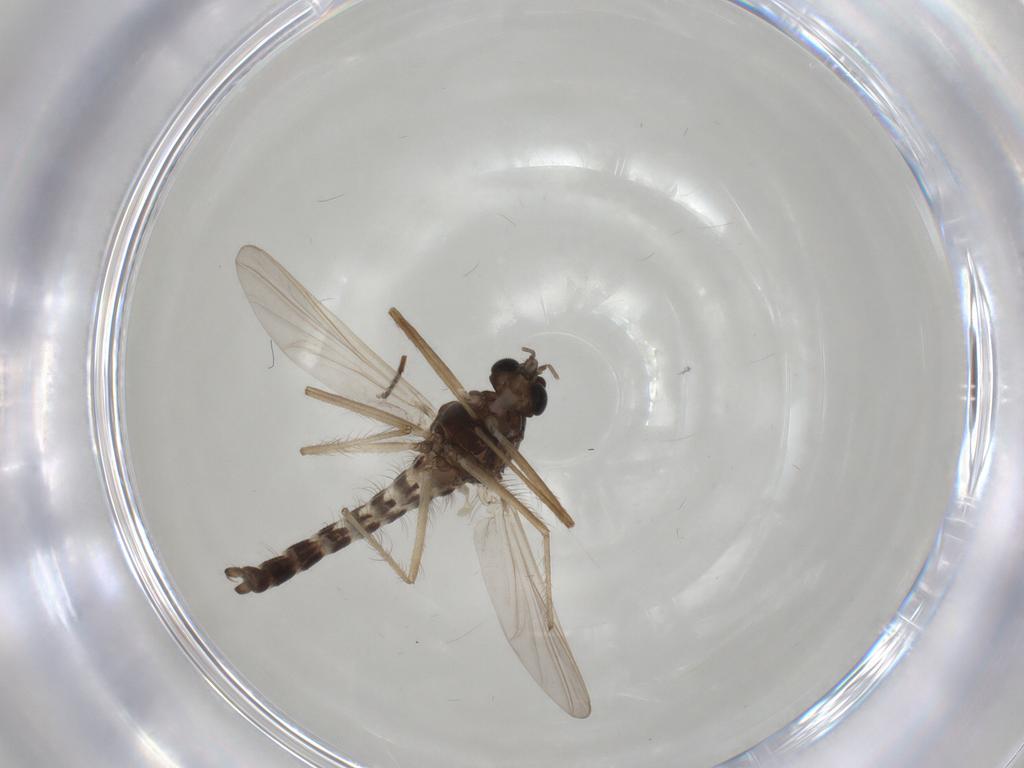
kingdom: Animalia
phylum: Arthropoda
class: Insecta
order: Diptera
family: Chironomidae
